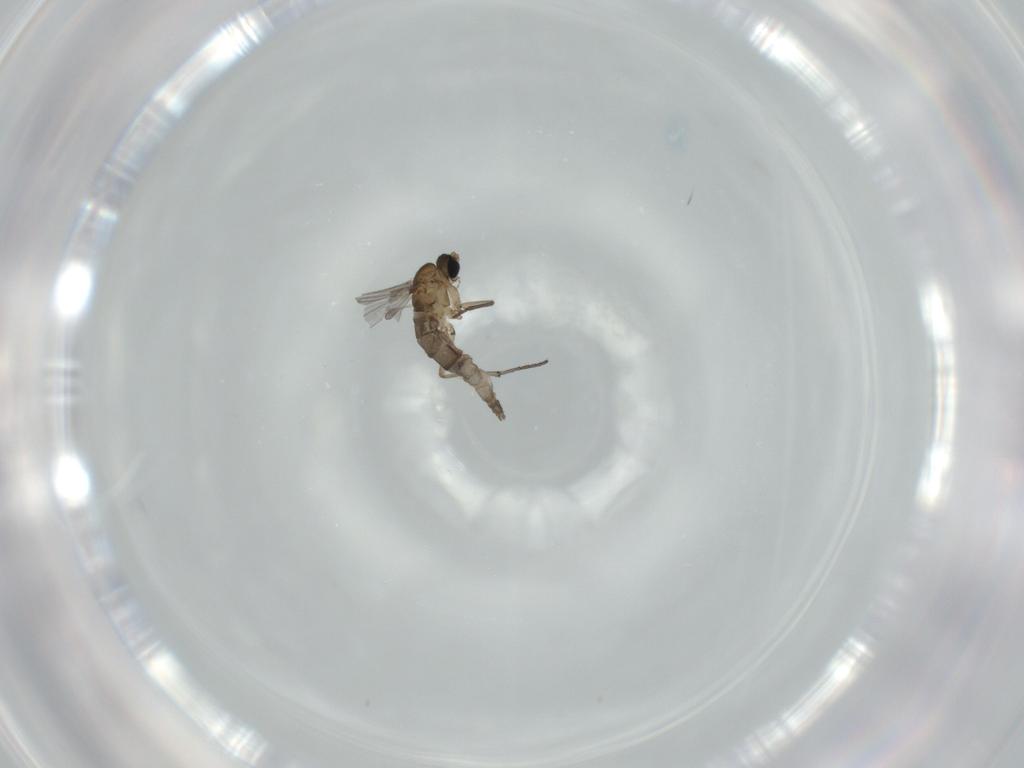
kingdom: Animalia
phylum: Arthropoda
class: Insecta
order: Diptera
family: Sciaridae
